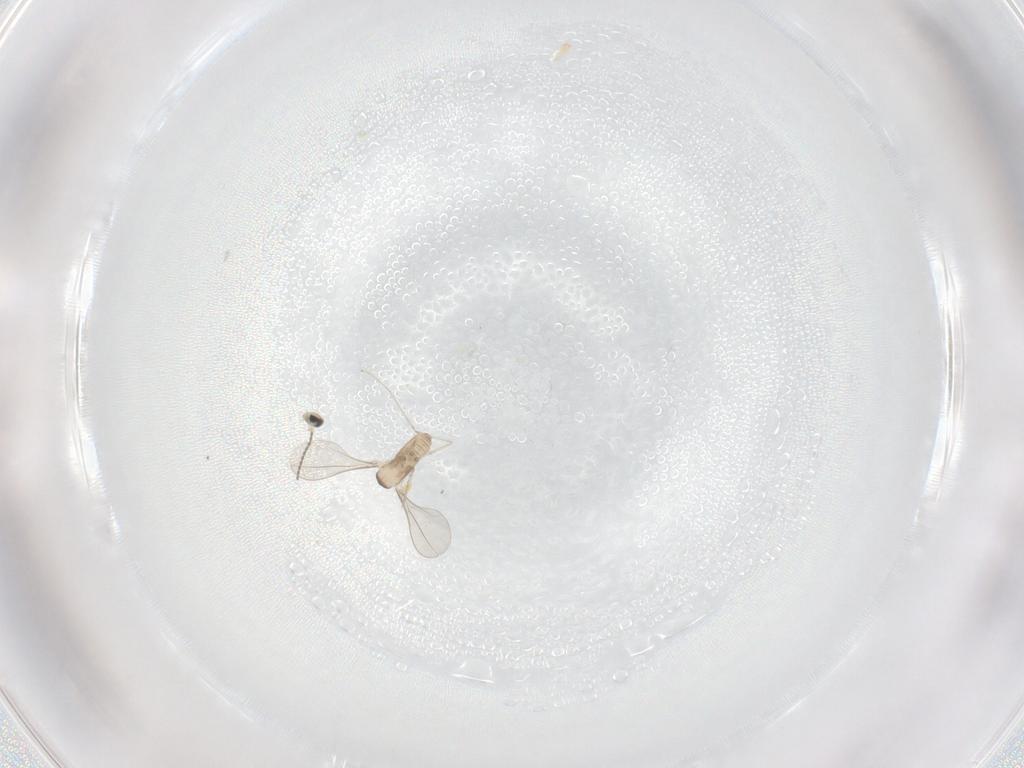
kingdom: Animalia
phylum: Arthropoda
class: Insecta
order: Diptera
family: Cecidomyiidae
